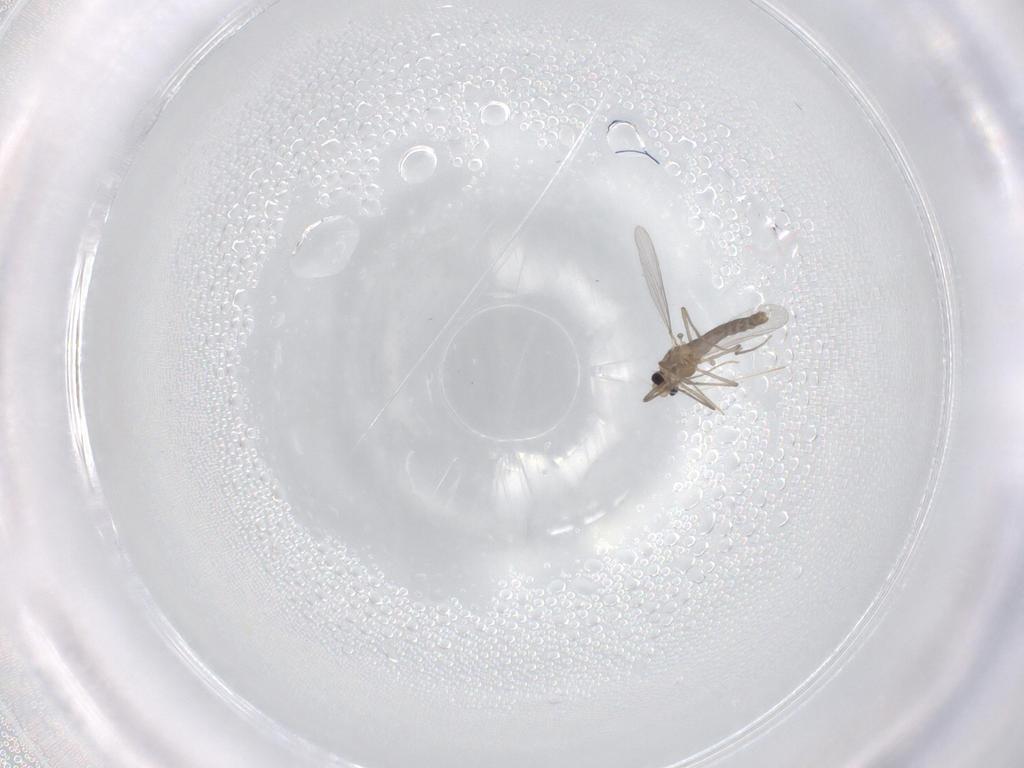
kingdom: Animalia
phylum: Arthropoda
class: Insecta
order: Diptera
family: Chironomidae
